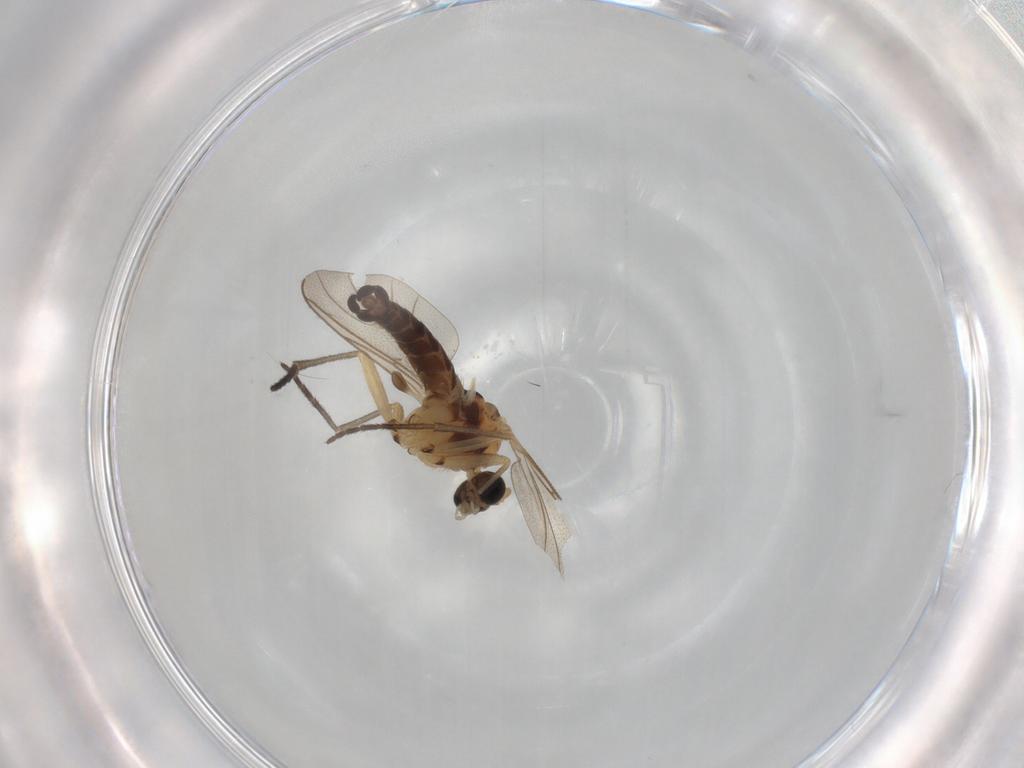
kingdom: Animalia
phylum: Arthropoda
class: Insecta
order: Diptera
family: Sciaridae
